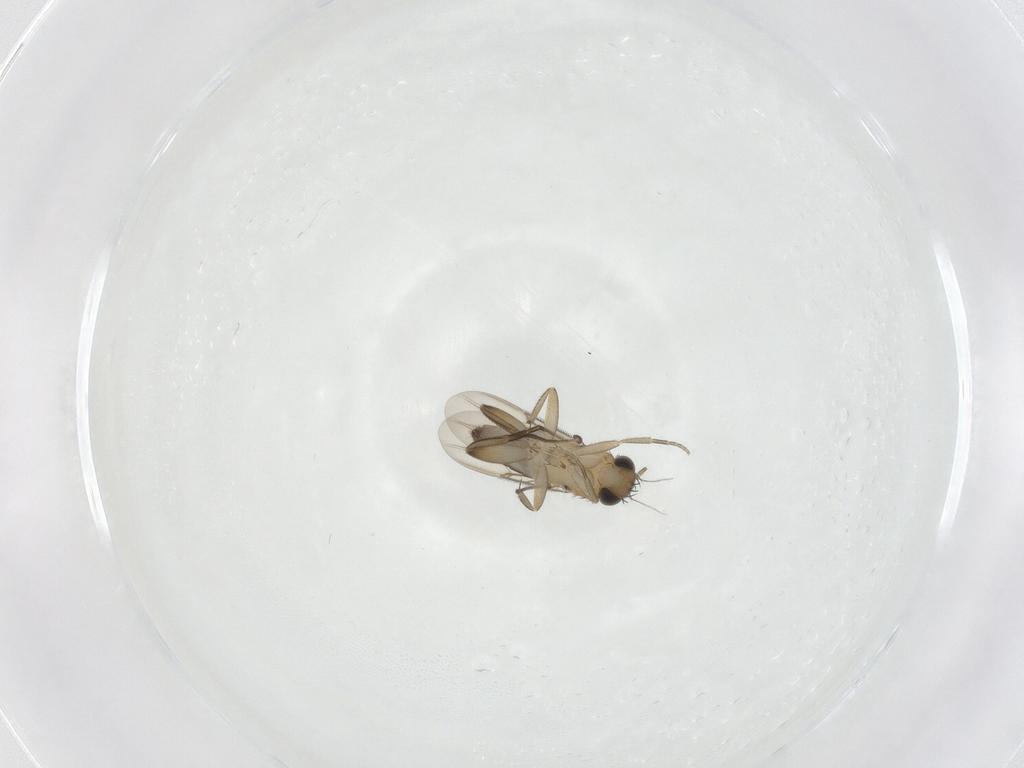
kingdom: Animalia
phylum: Arthropoda
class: Insecta
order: Diptera
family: Phoridae
